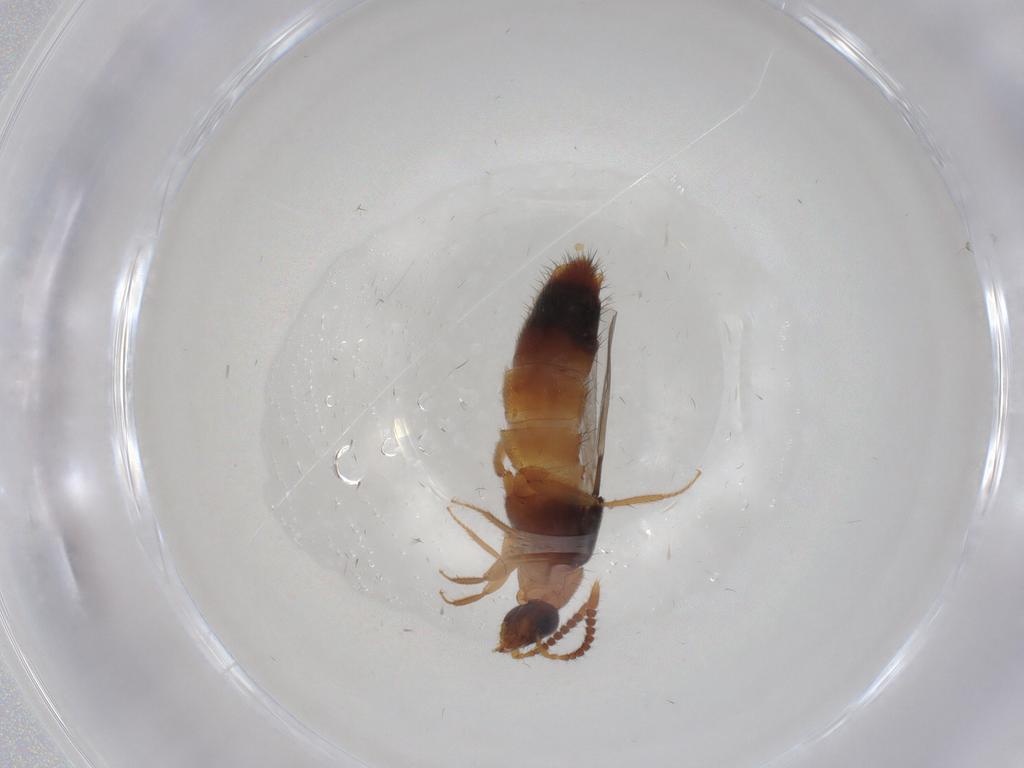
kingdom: Animalia
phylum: Arthropoda
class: Insecta
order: Coleoptera
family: Staphylinidae
